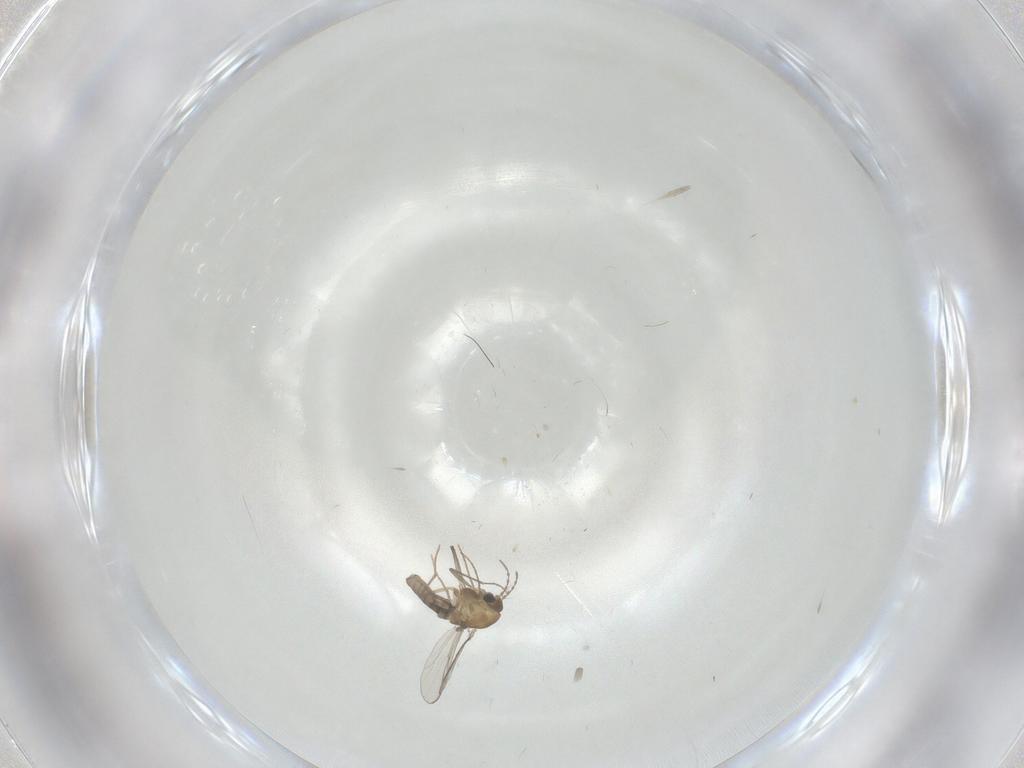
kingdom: Animalia
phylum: Arthropoda
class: Insecta
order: Diptera
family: Chironomidae
